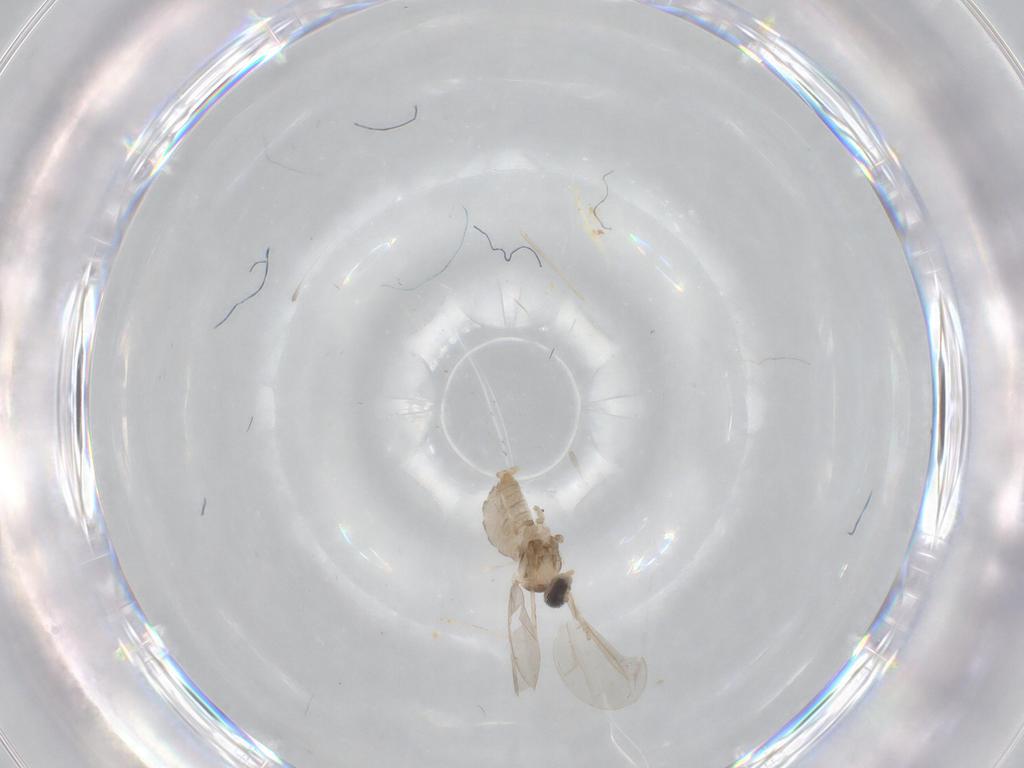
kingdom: Animalia
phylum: Arthropoda
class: Insecta
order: Diptera
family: Cecidomyiidae
